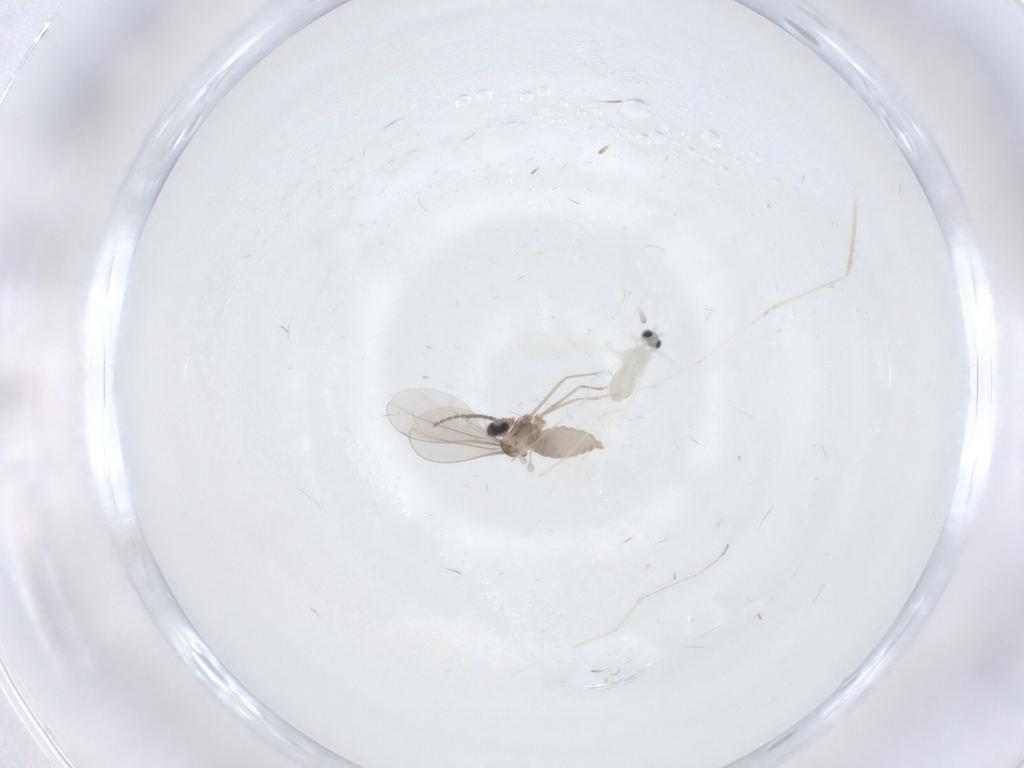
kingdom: Animalia
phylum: Arthropoda
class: Insecta
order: Diptera
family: Cecidomyiidae
